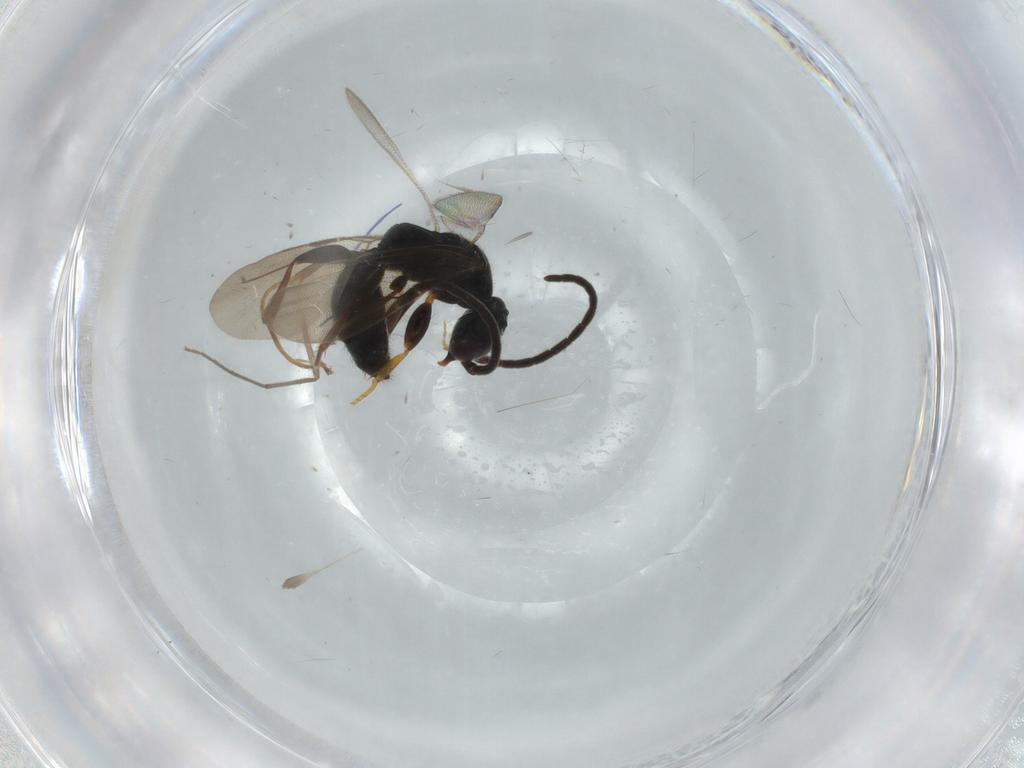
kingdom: Animalia
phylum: Arthropoda
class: Insecta
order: Hymenoptera
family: Bethylidae
